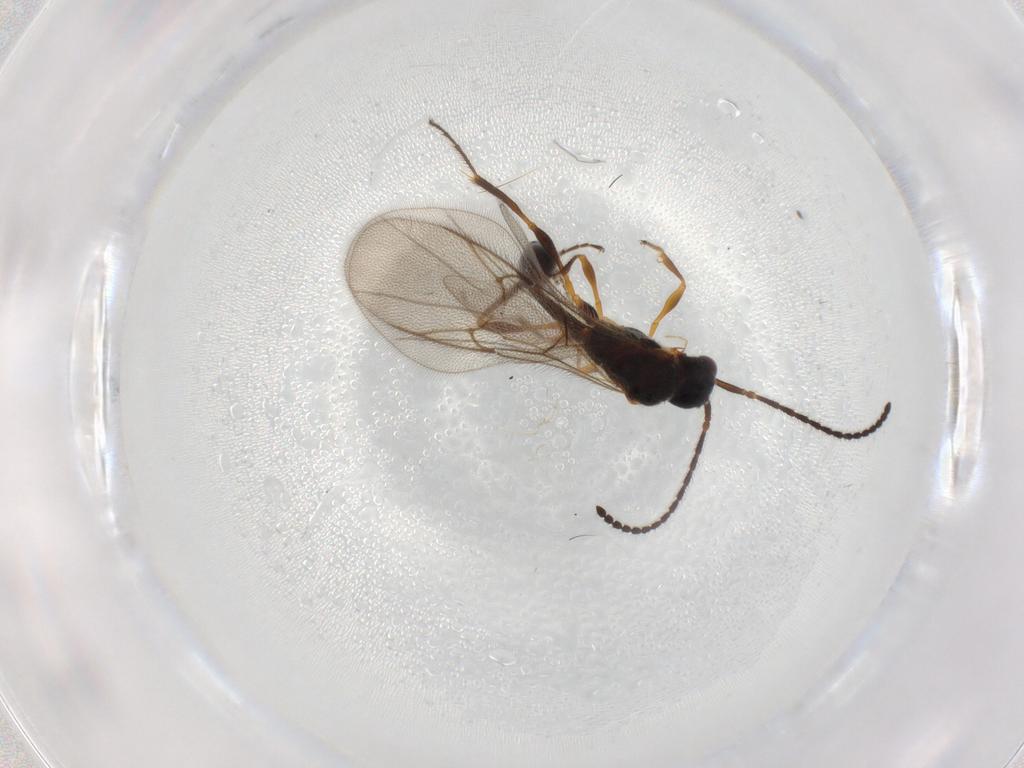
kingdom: Animalia
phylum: Arthropoda
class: Insecta
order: Hymenoptera
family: Diapriidae
